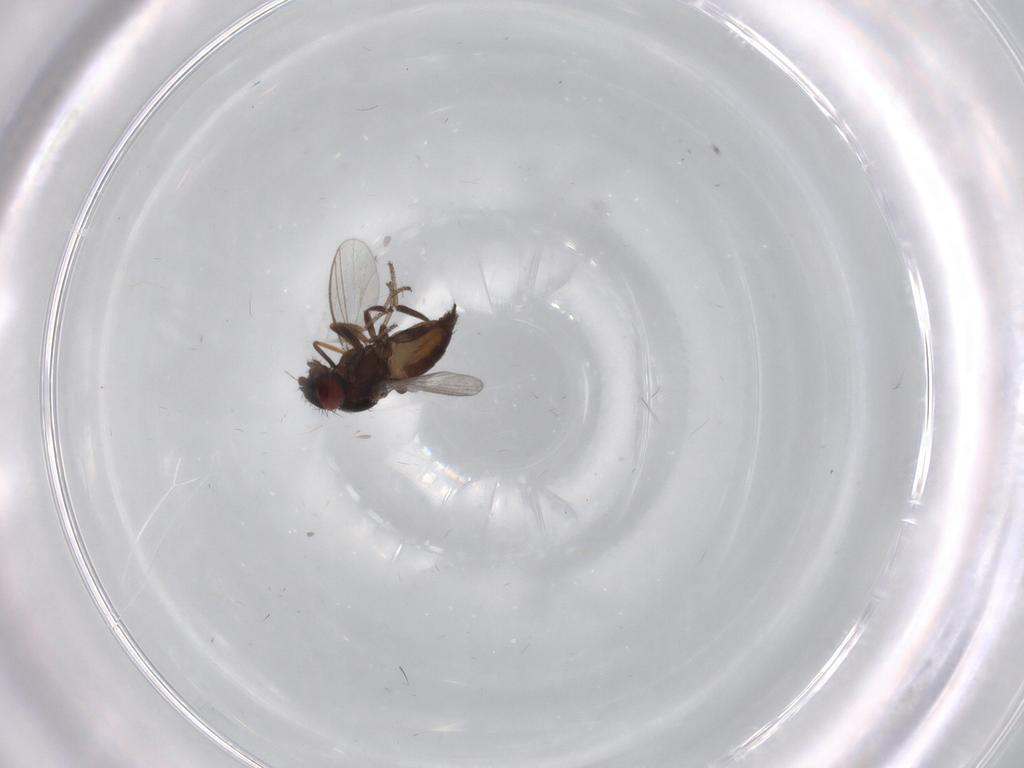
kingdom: Animalia
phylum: Arthropoda
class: Insecta
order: Diptera
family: Milichiidae
